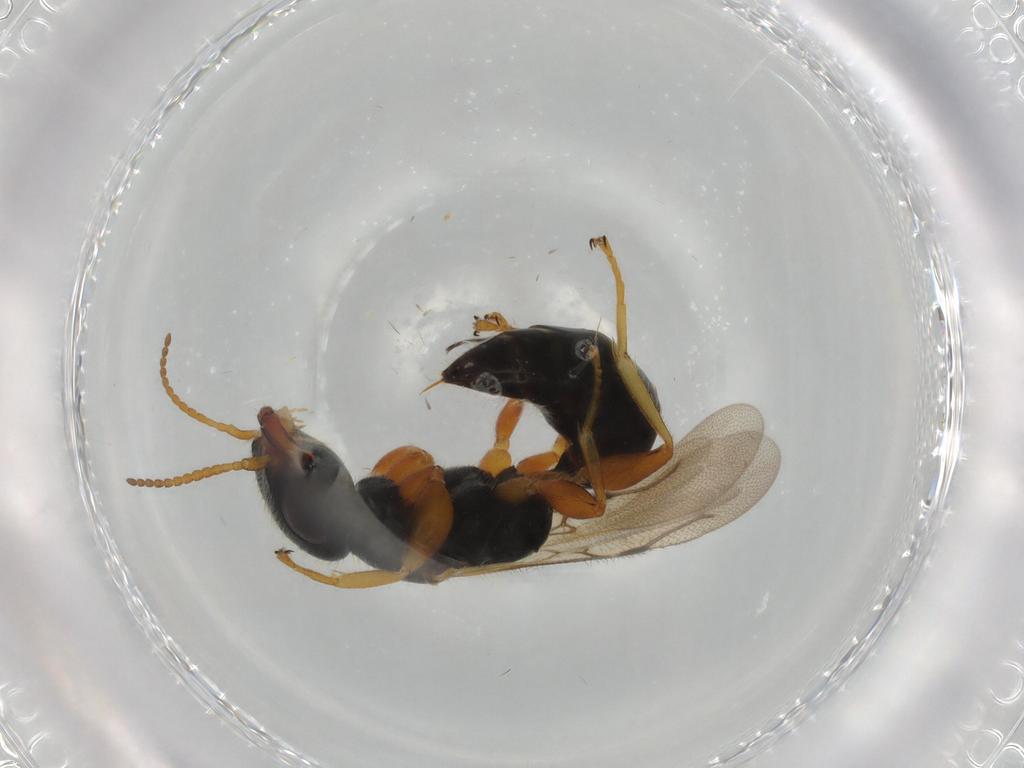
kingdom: Animalia
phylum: Arthropoda
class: Insecta
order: Hymenoptera
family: Bethylidae
